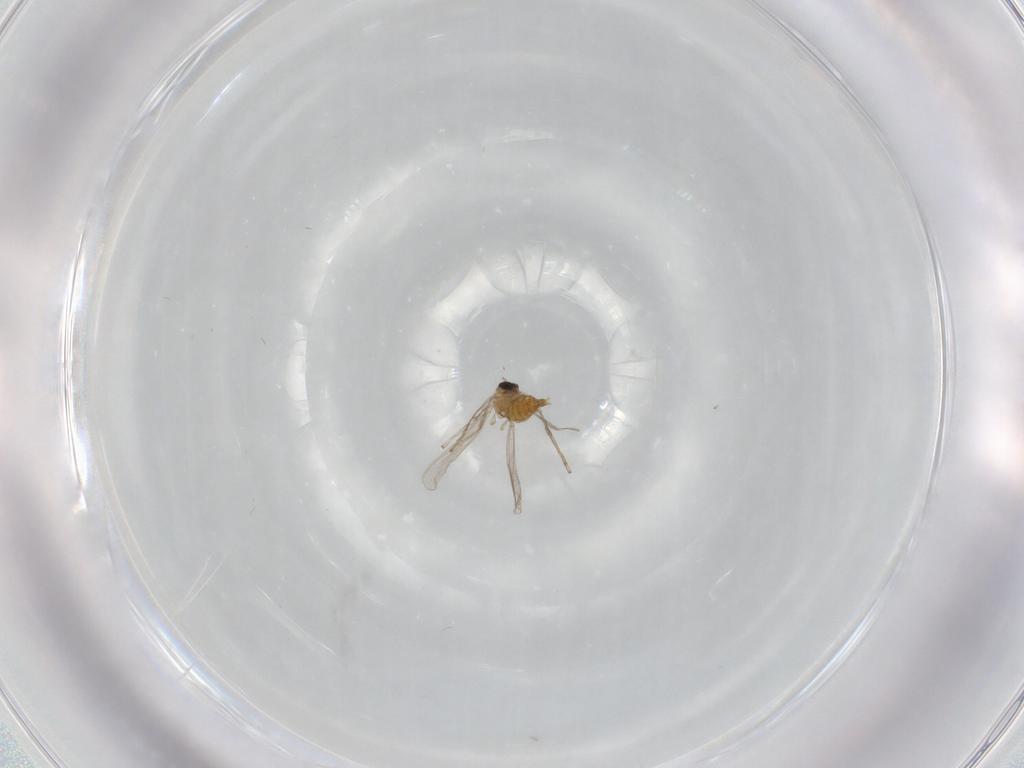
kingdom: Animalia
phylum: Arthropoda
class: Insecta
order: Diptera
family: Chironomidae
